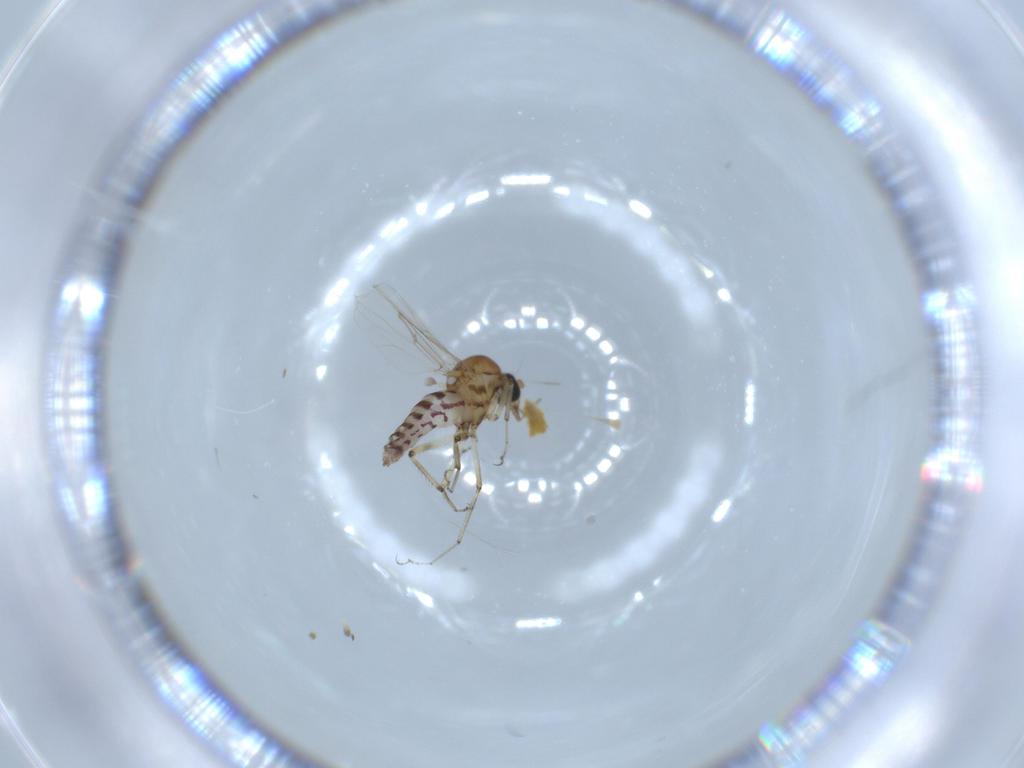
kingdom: Animalia
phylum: Arthropoda
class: Insecta
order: Diptera
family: Ceratopogonidae
